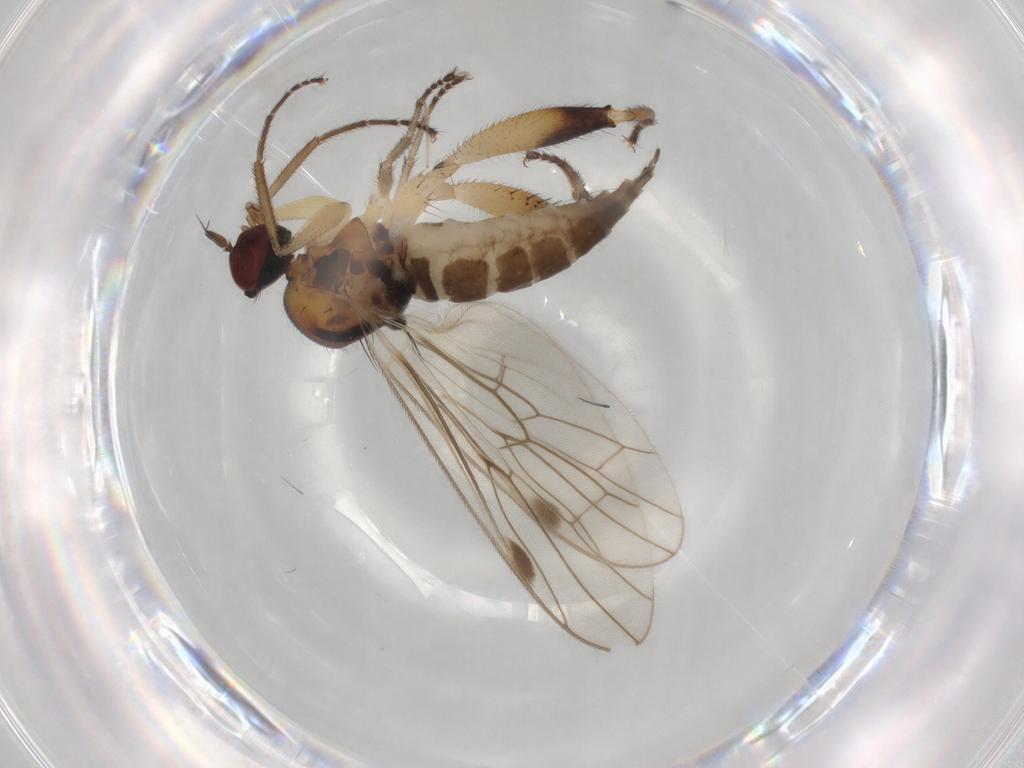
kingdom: Animalia
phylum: Arthropoda
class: Insecta
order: Diptera
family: Hybotidae
